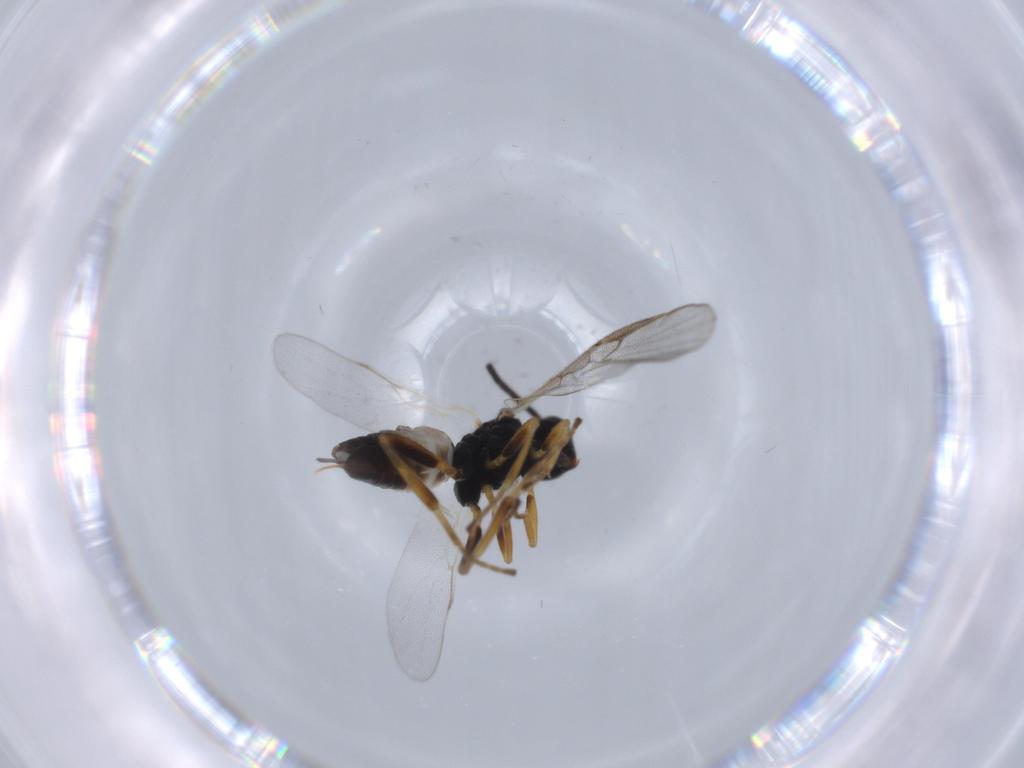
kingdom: Animalia
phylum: Arthropoda
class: Insecta
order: Hymenoptera
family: Braconidae
